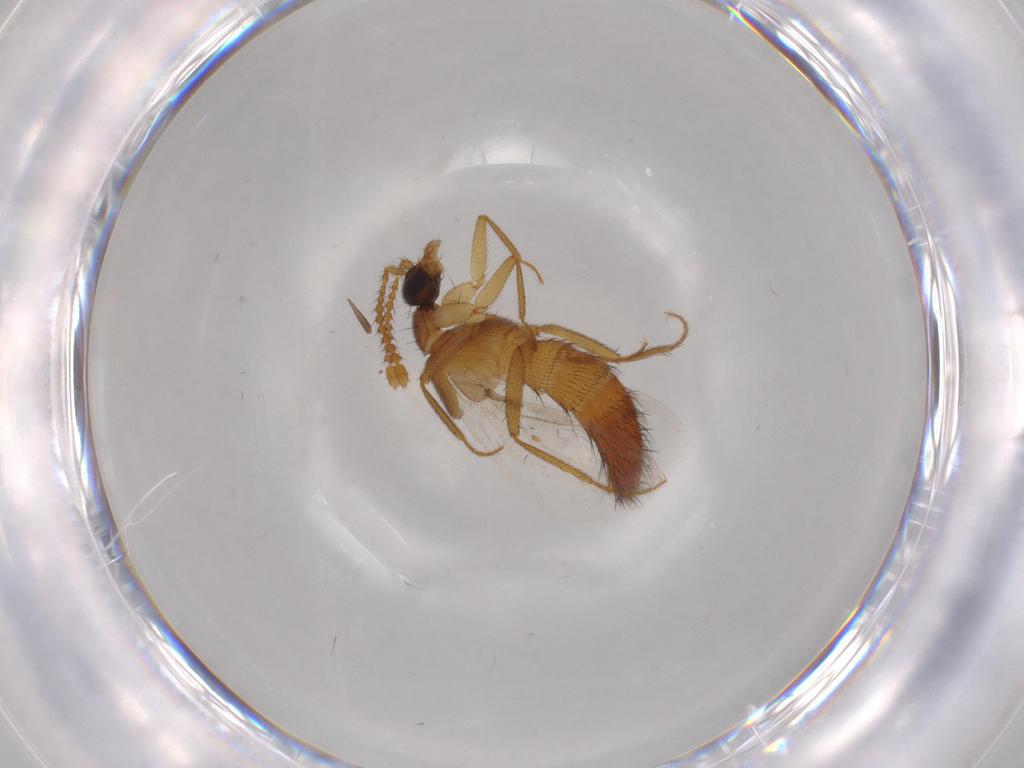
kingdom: Animalia
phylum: Arthropoda
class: Insecta
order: Coleoptera
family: Staphylinidae
